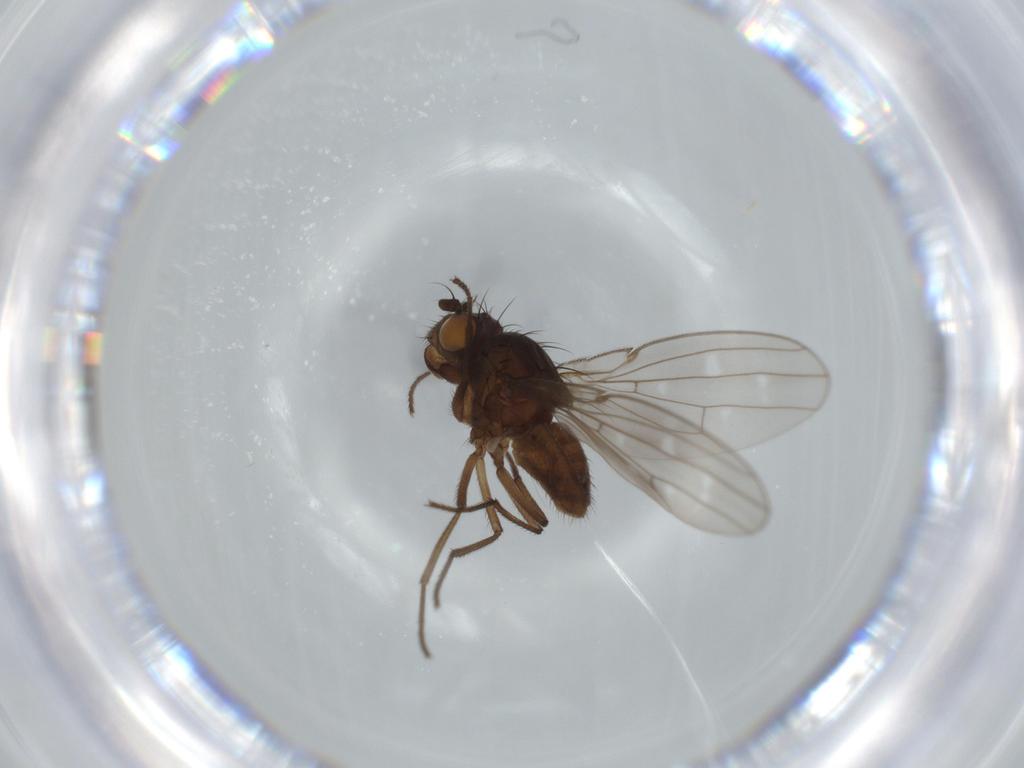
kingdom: Animalia
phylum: Arthropoda
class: Insecta
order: Diptera
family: Ephydridae
